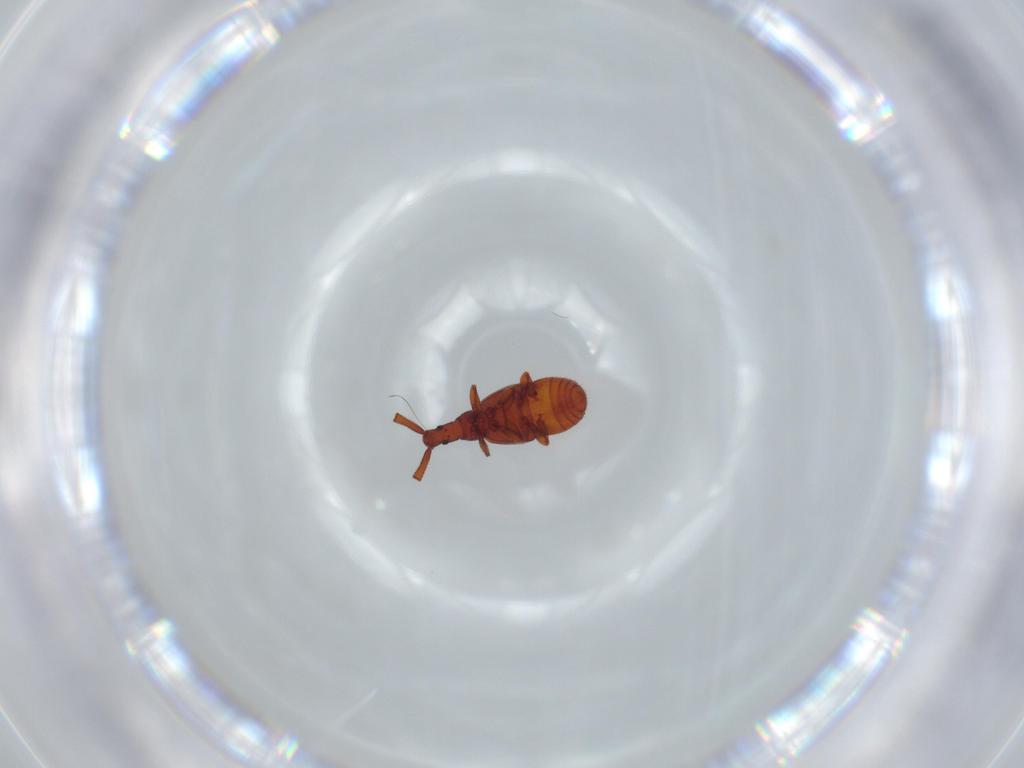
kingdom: Animalia
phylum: Arthropoda
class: Insecta
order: Coleoptera
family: Staphylinidae
